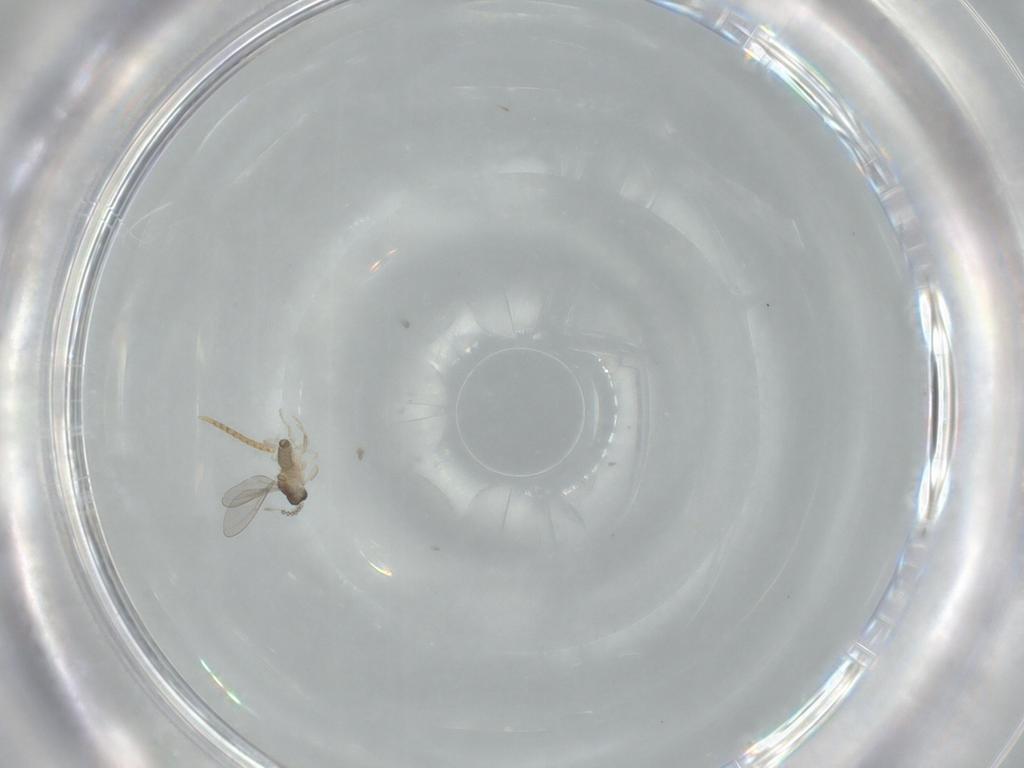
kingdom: Animalia
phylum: Arthropoda
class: Insecta
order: Diptera
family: Cecidomyiidae
